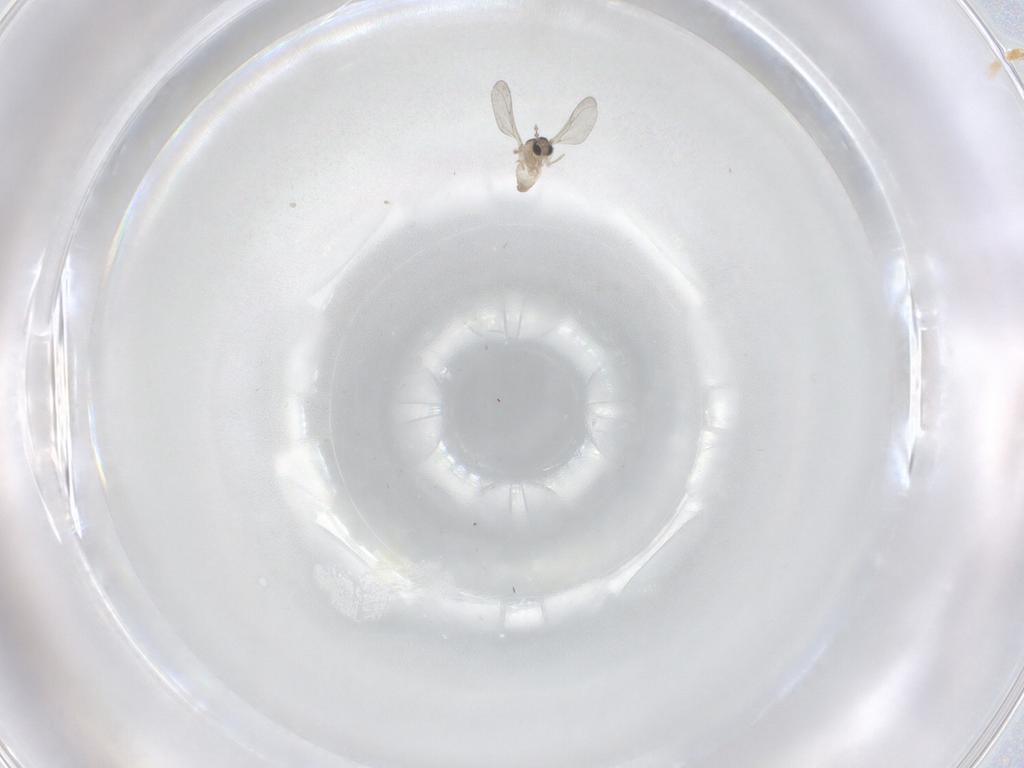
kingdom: Animalia
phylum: Arthropoda
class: Insecta
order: Diptera
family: Cecidomyiidae
